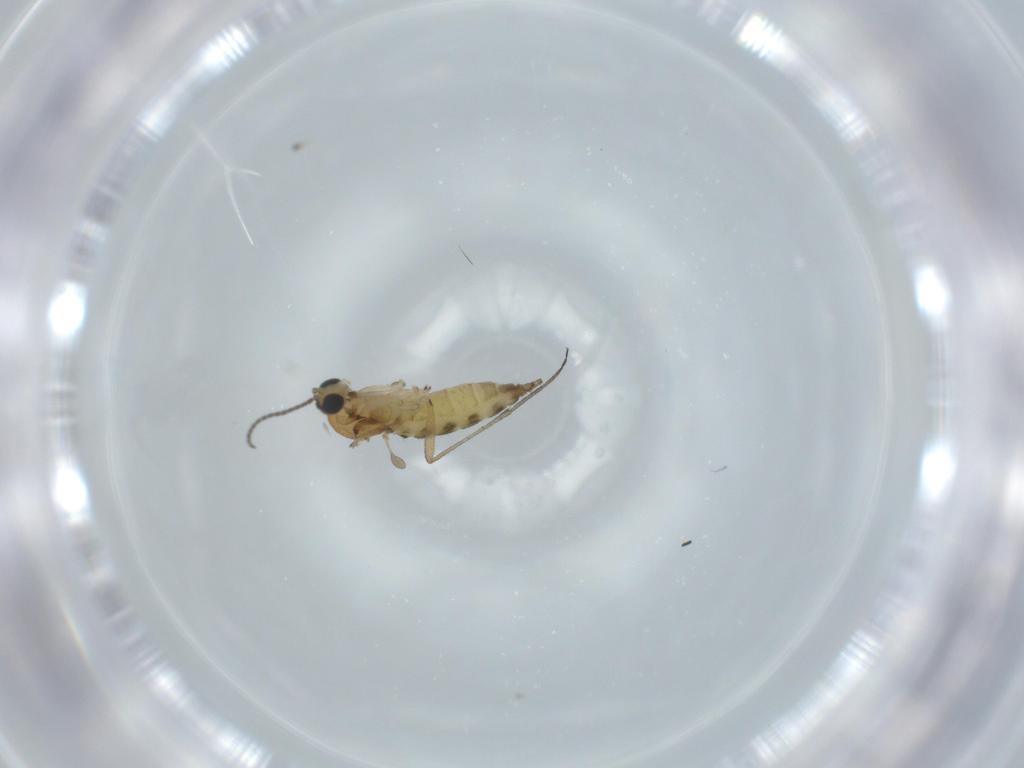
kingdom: Animalia
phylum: Arthropoda
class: Insecta
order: Diptera
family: Sciaridae
